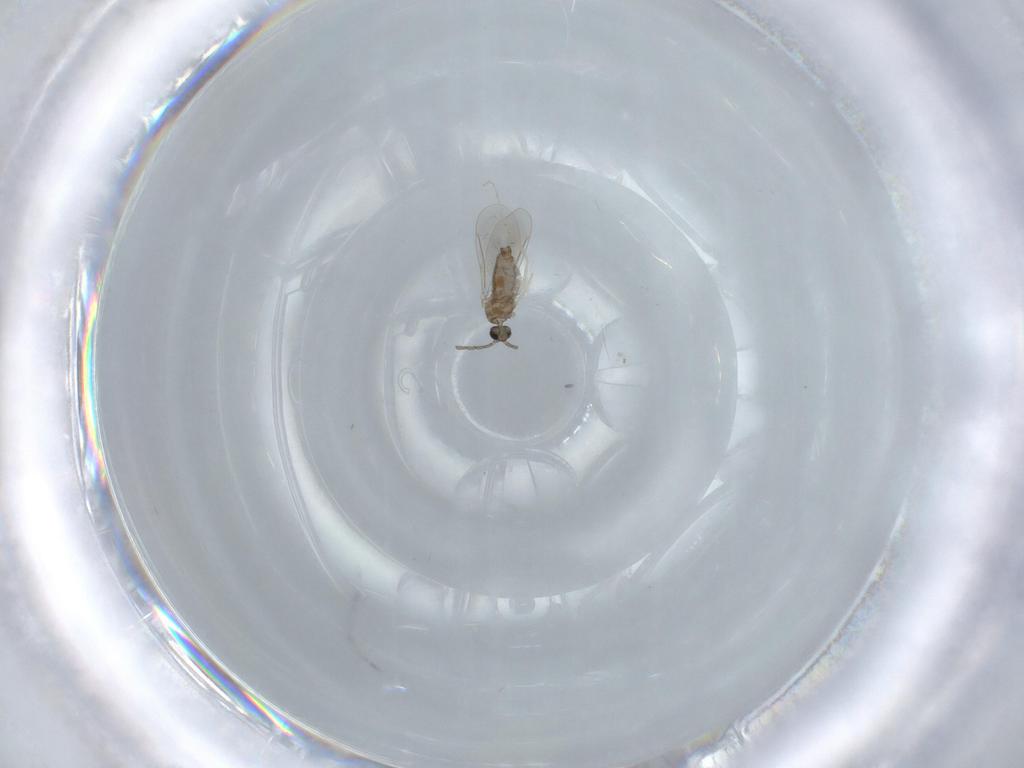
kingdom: Animalia
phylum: Arthropoda
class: Insecta
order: Diptera
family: Cecidomyiidae
